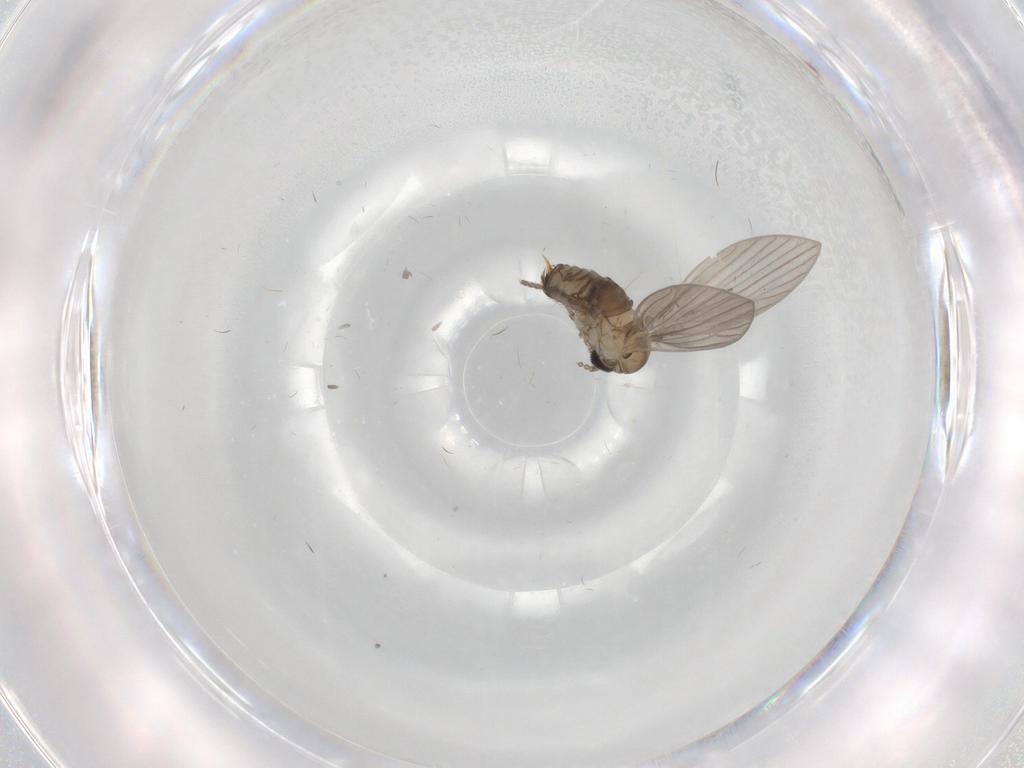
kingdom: Animalia
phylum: Arthropoda
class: Insecta
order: Diptera
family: Psychodidae
